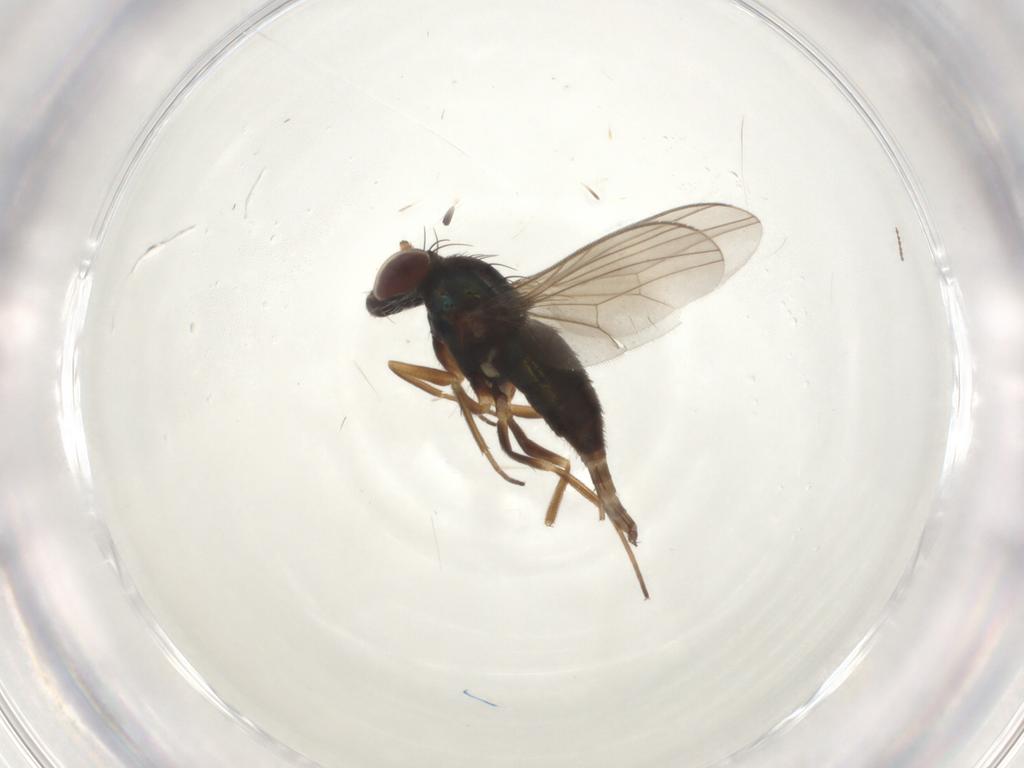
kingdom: Animalia
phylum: Arthropoda
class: Insecta
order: Diptera
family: Dolichopodidae
